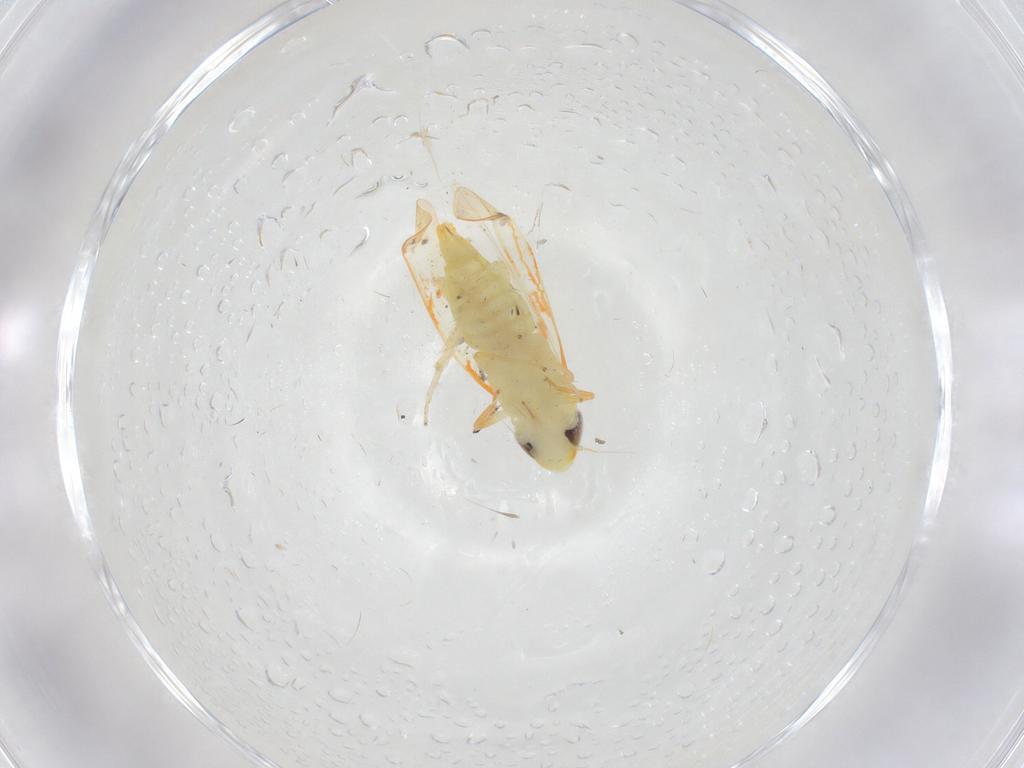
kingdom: Animalia
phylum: Arthropoda
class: Insecta
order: Hemiptera
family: Cicadellidae
